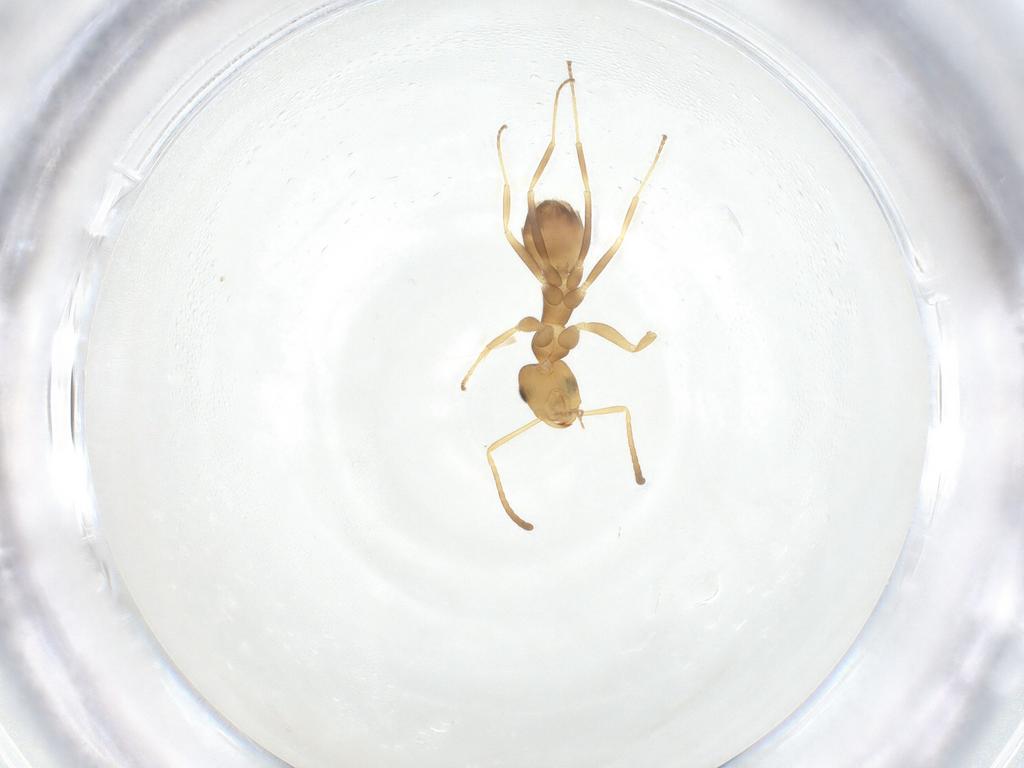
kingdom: Animalia
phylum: Arthropoda
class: Insecta
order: Hymenoptera
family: Formicidae
